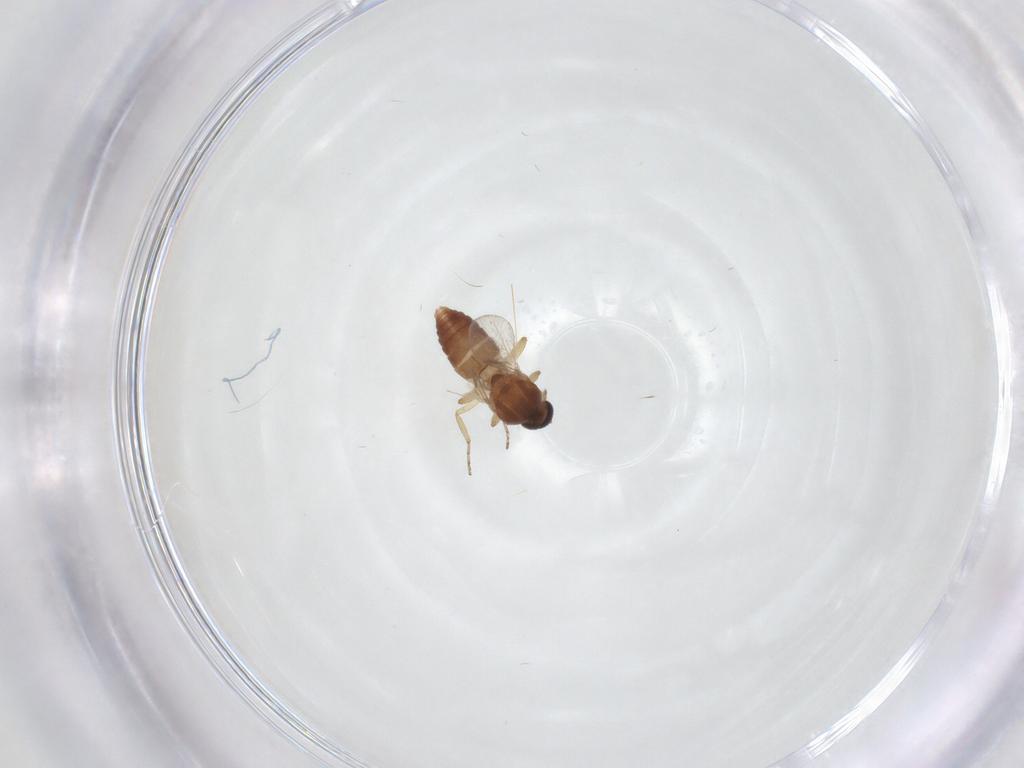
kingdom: Animalia
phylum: Arthropoda
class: Insecta
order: Diptera
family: Ceratopogonidae
